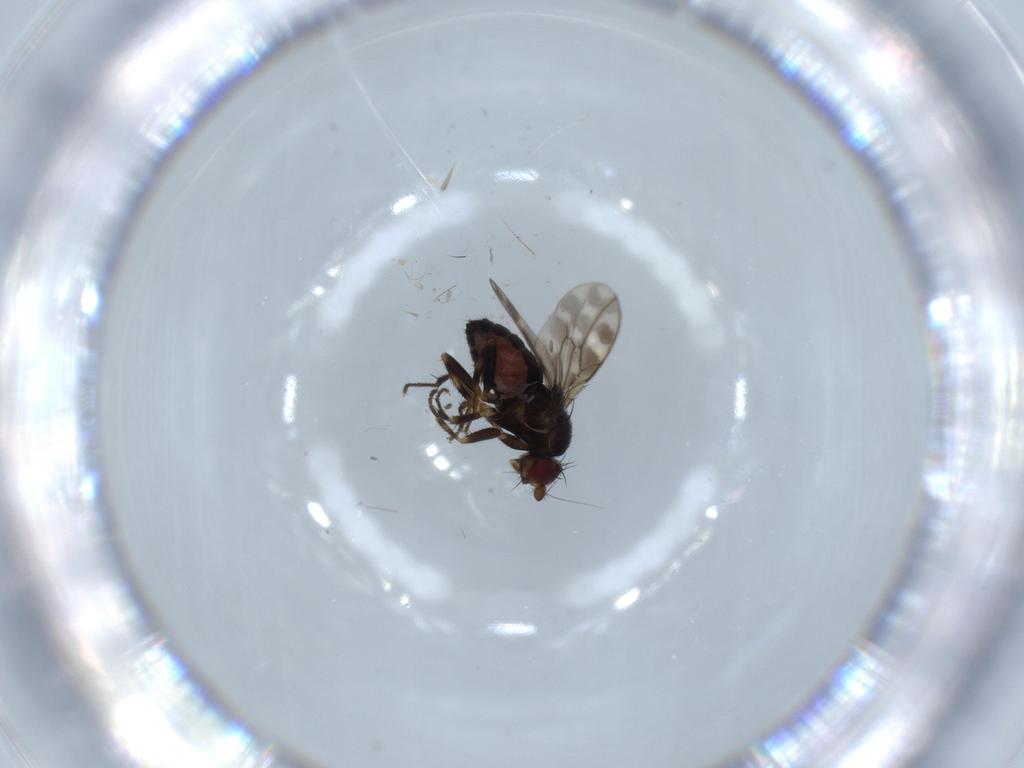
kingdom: Animalia
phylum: Arthropoda
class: Insecta
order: Diptera
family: Sphaeroceridae
